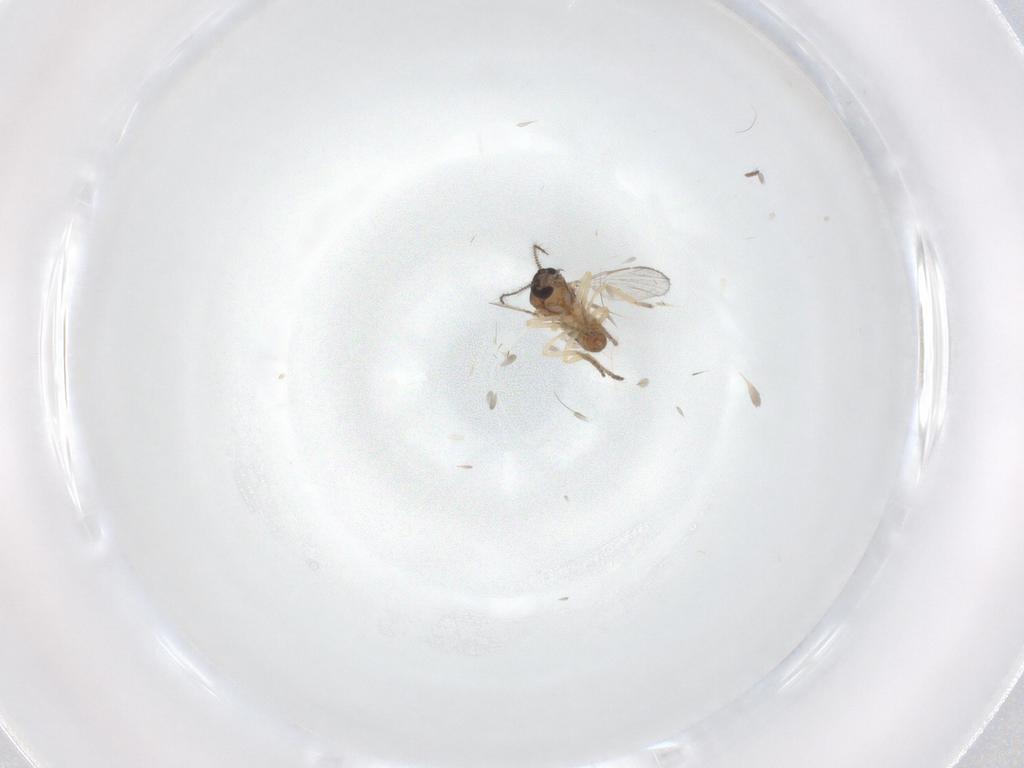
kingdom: Animalia
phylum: Arthropoda
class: Insecta
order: Diptera
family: Ceratopogonidae
